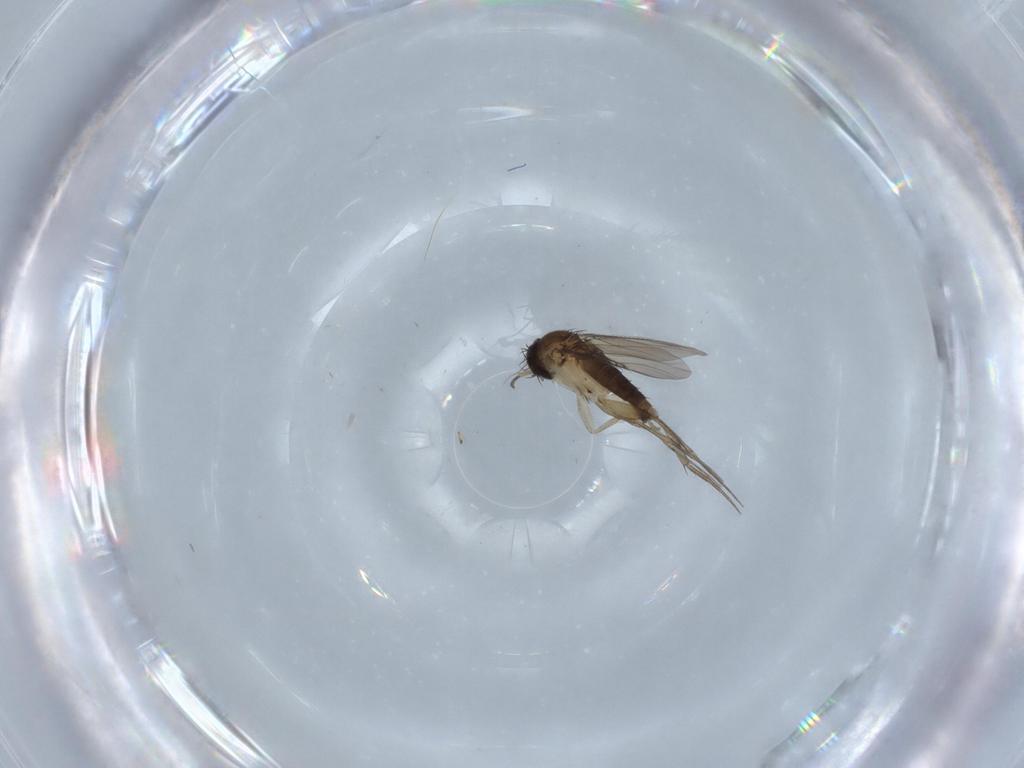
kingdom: Animalia
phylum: Arthropoda
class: Insecta
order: Diptera
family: Phoridae
